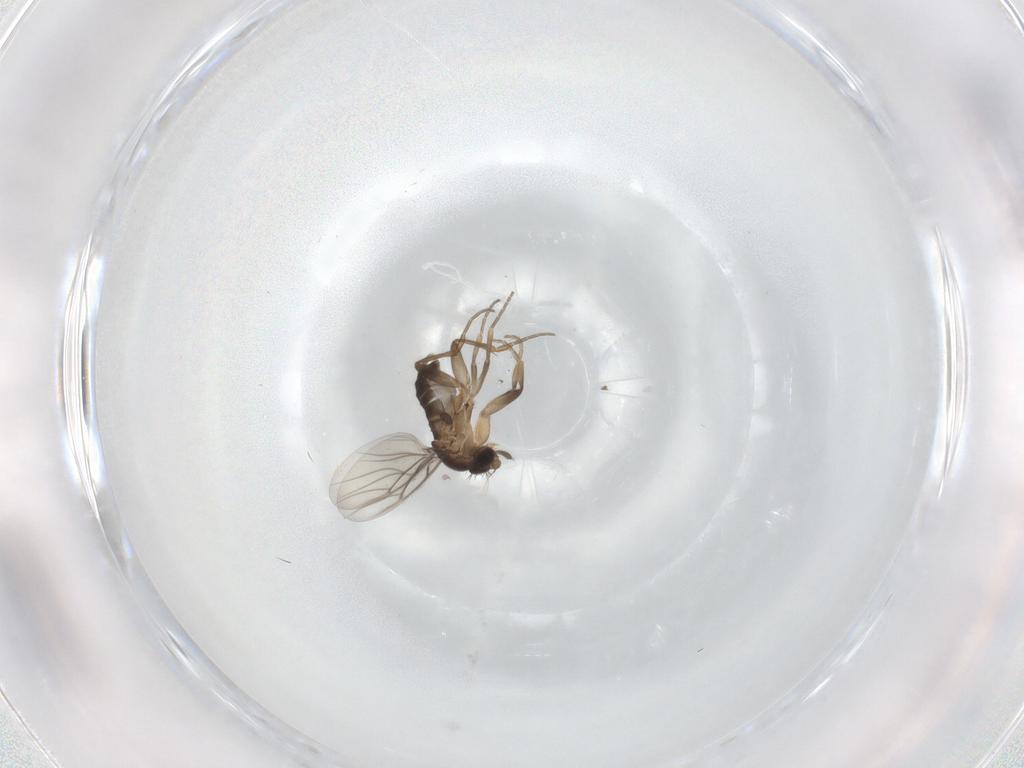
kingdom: Animalia
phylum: Arthropoda
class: Insecta
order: Diptera
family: Phoridae
